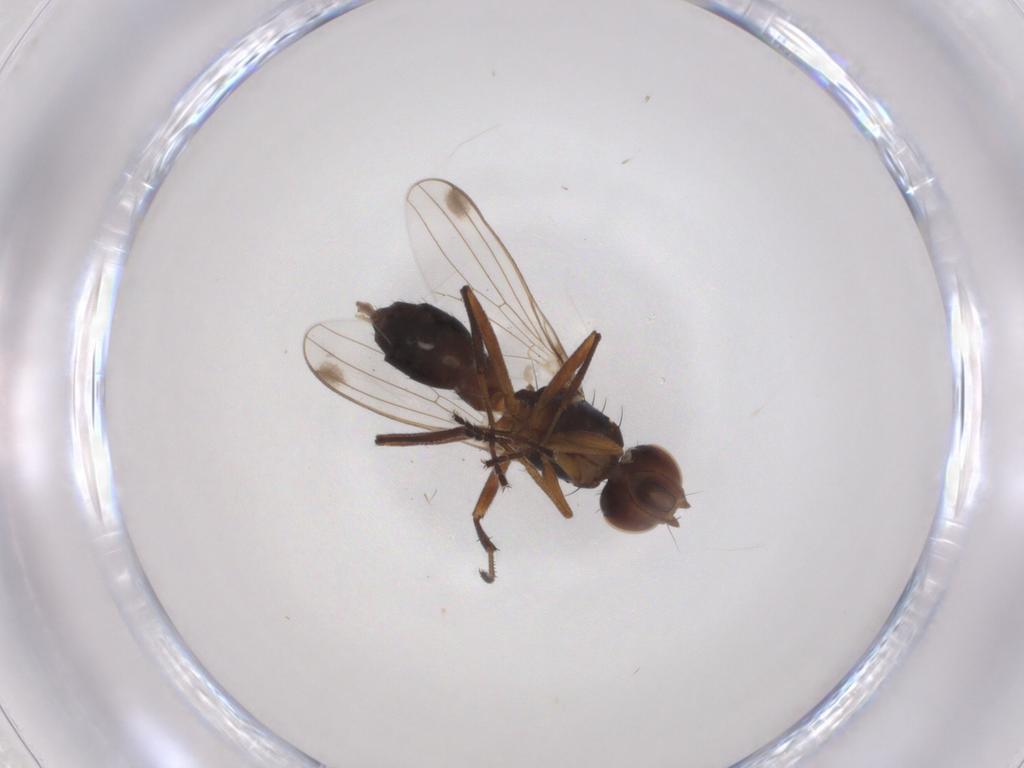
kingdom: Animalia
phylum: Arthropoda
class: Insecta
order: Diptera
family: Sepsidae
